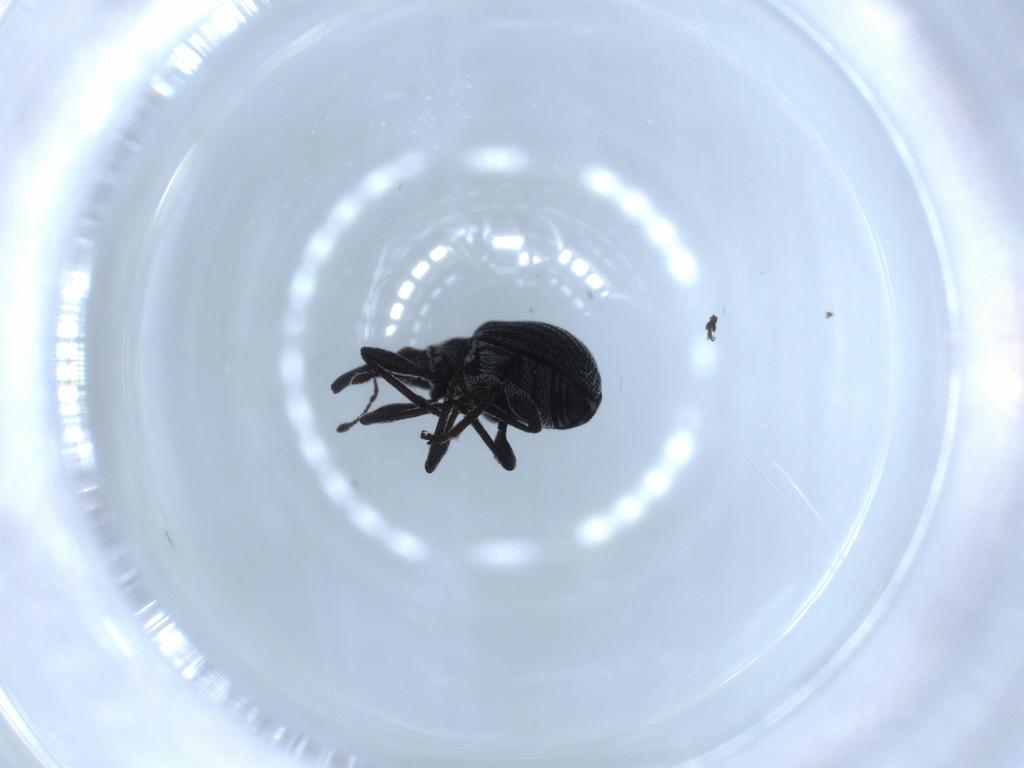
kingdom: Animalia
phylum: Arthropoda
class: Insecta
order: Coleoptera
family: Brentidae
